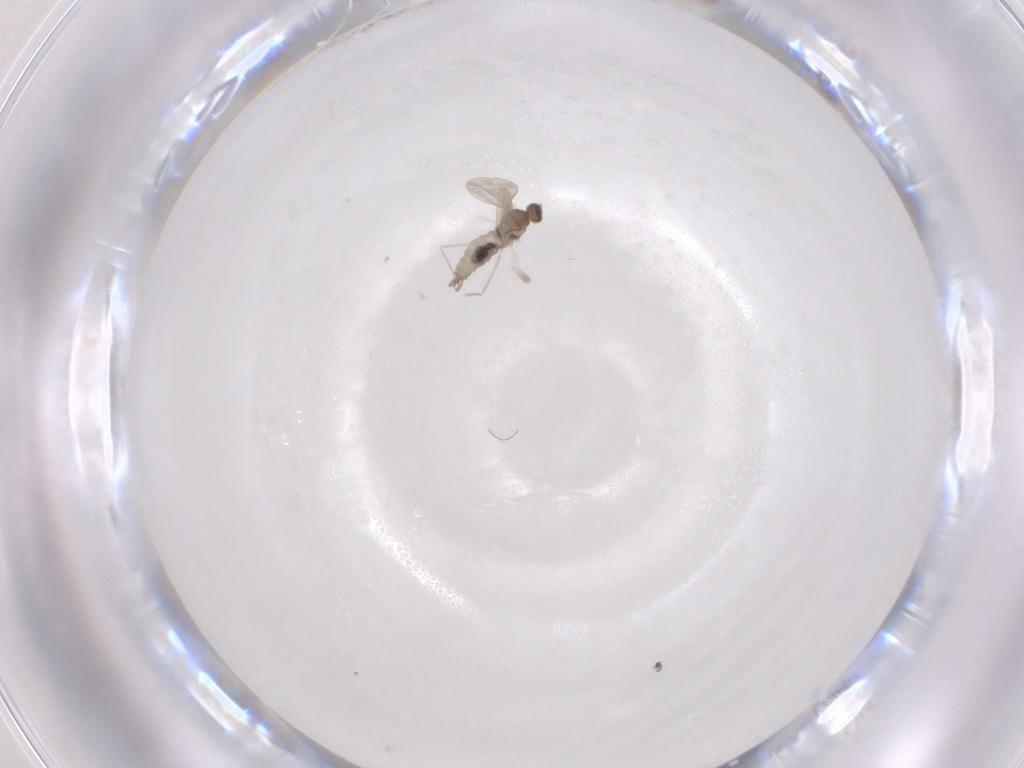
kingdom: Animalia
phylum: Arthropoda
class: Insecta
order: Diptera
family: Cecidomyiidae
